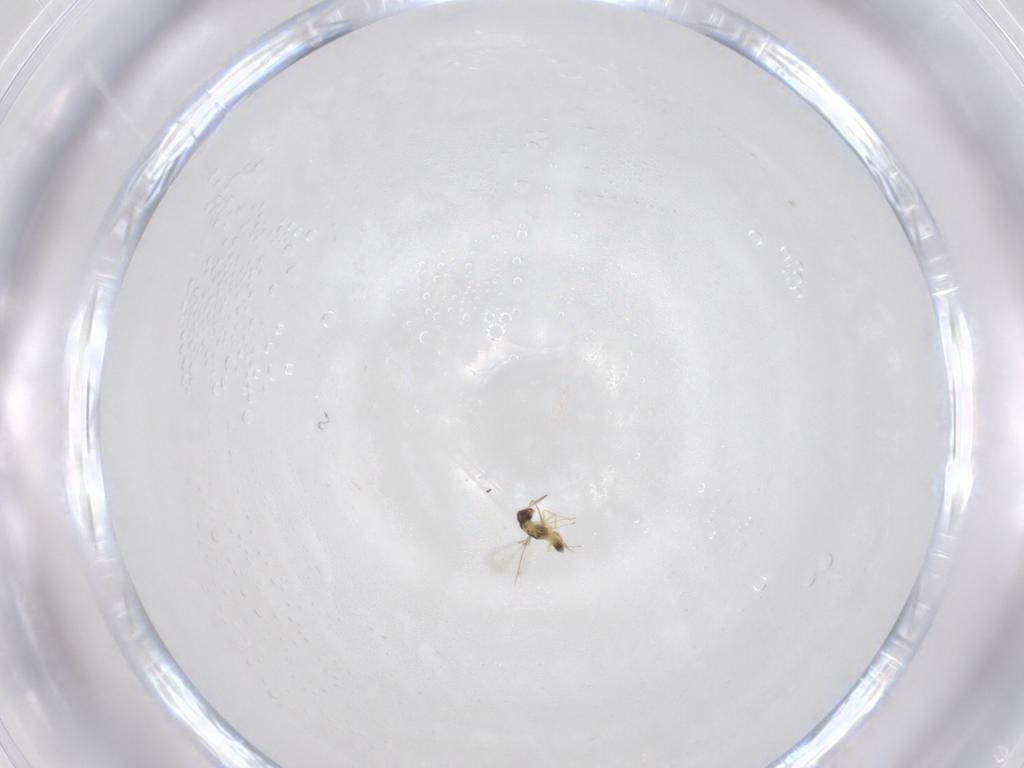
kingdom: Animalia
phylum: Arthropoda
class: Insecta
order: Hymenoptera
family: Mymaridae
